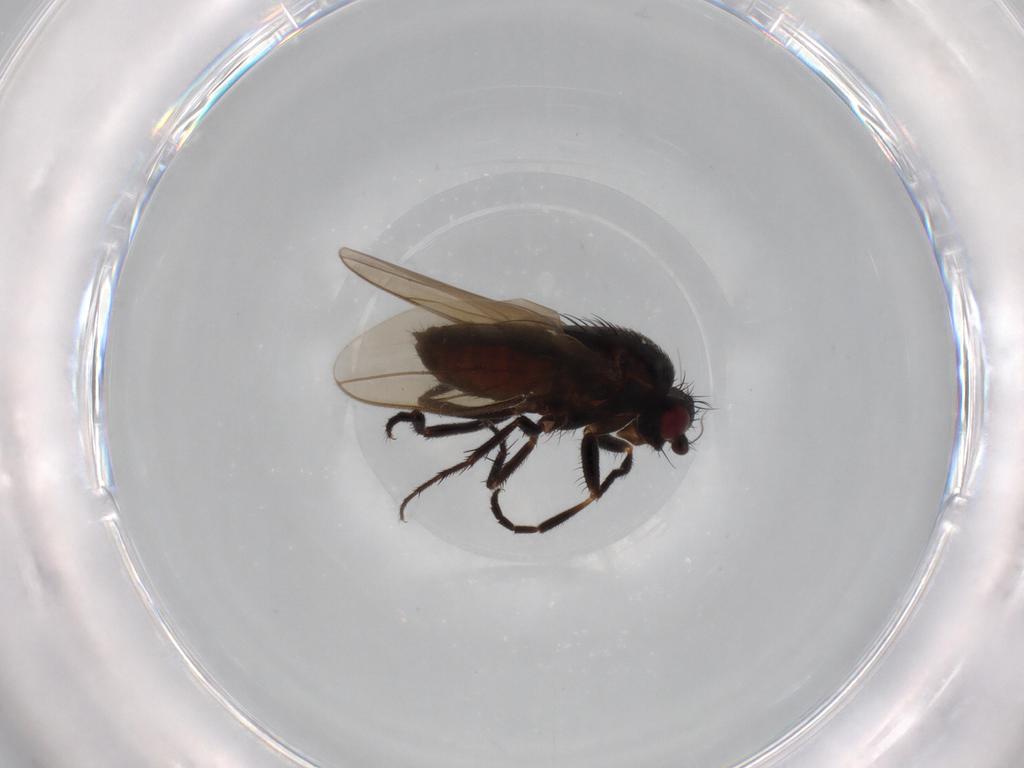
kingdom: Animalia
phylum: Arthropoda
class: Insecta
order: Diptera
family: Sphaeroceridae
